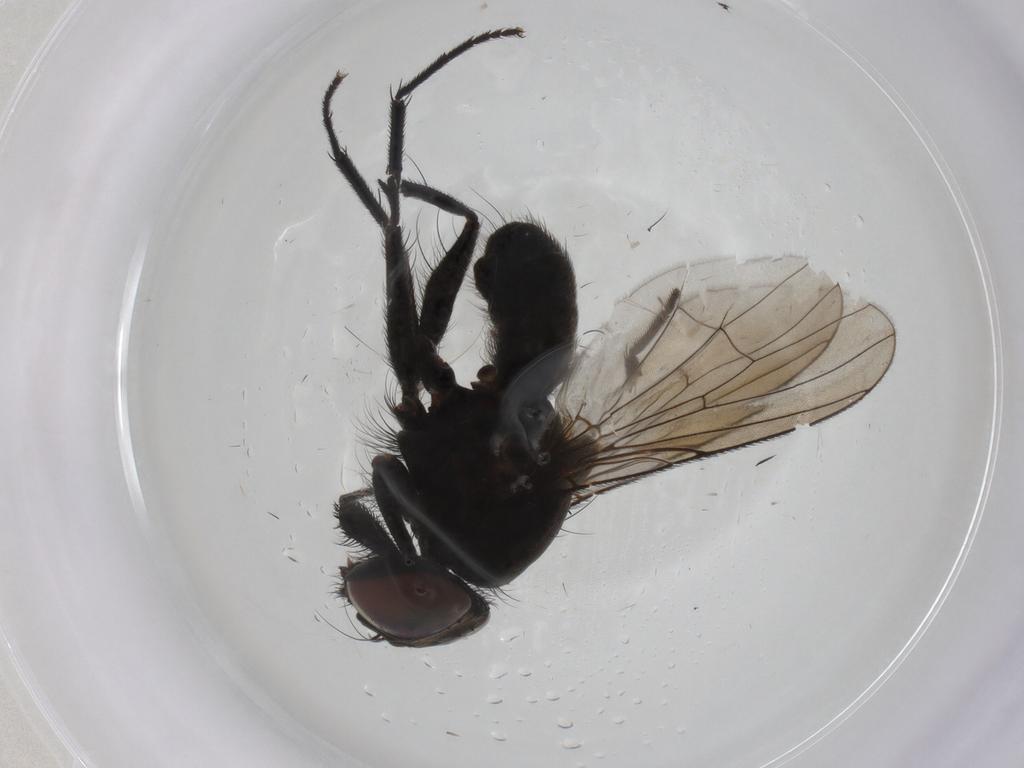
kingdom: Animalia
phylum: Arthropoda
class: Insecta
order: Diptera
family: Muscidae
